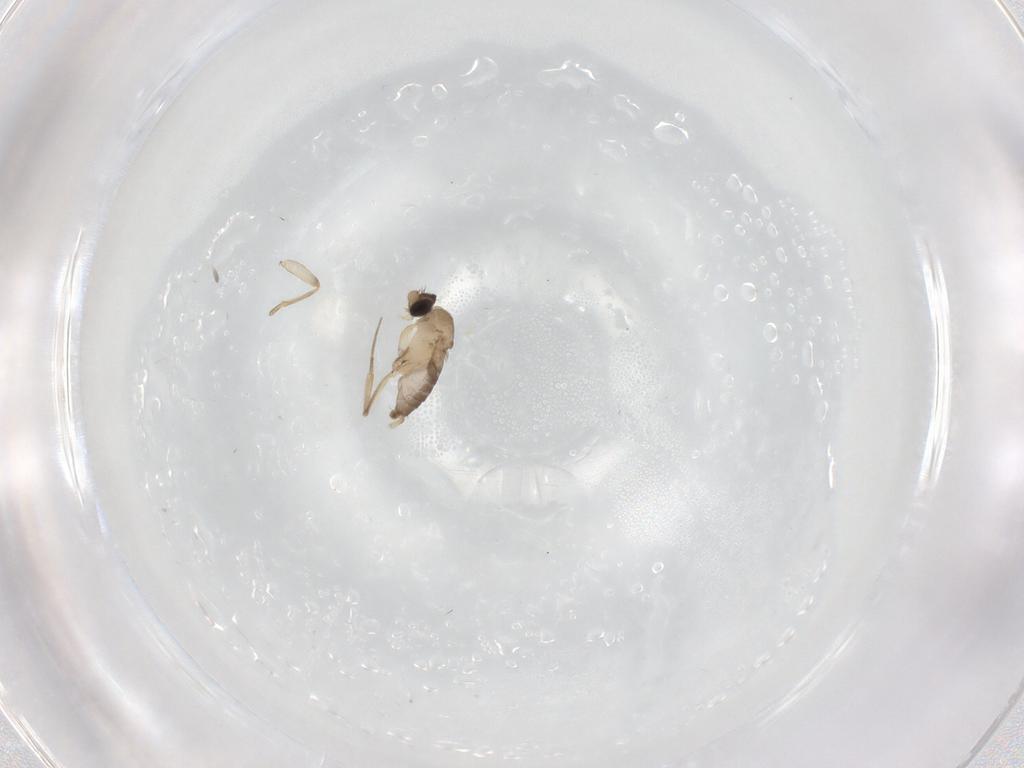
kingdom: Animalia
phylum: Arthropoda
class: Insecta
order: Diptera
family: Phoridae
